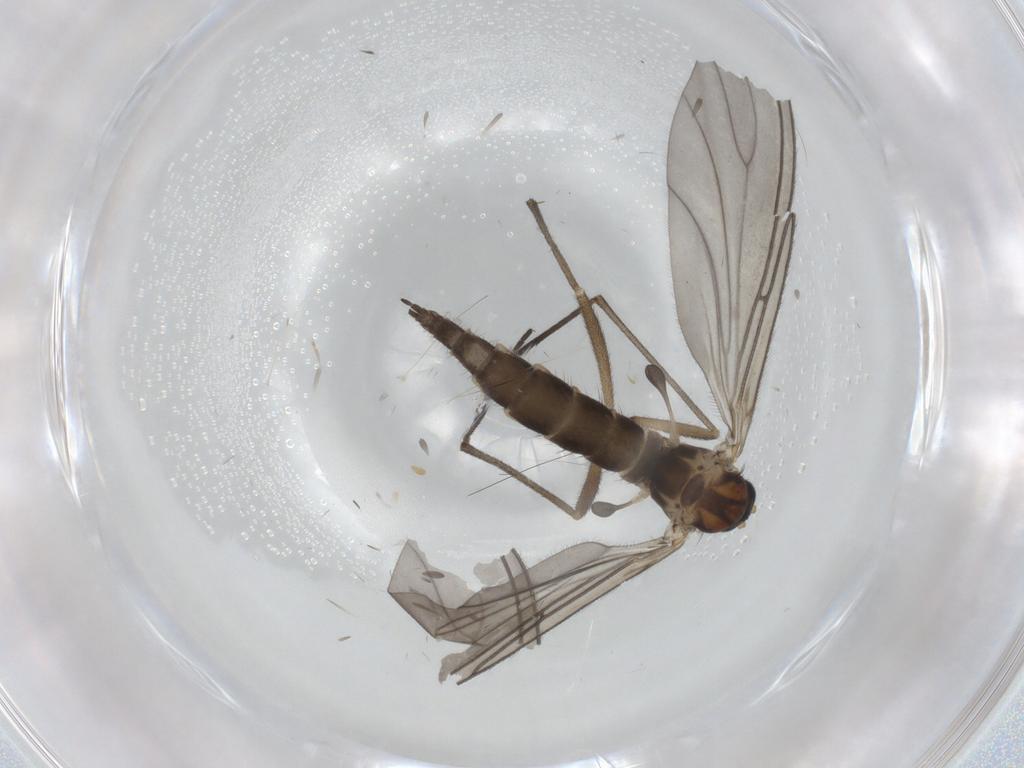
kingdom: Animalia
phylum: Arthropoda
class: Insecta
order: Diptera
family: Sciaridae
